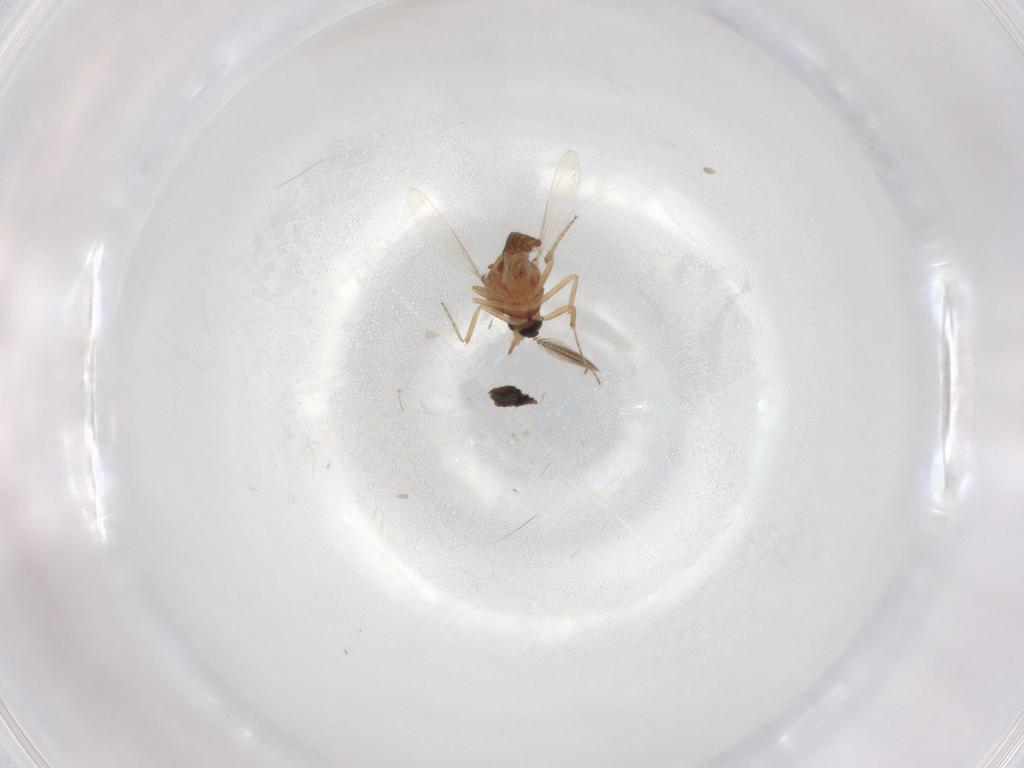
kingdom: Animalia
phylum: Arthropoda
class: Insecta
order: Diptera
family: Ceratopogonidae
